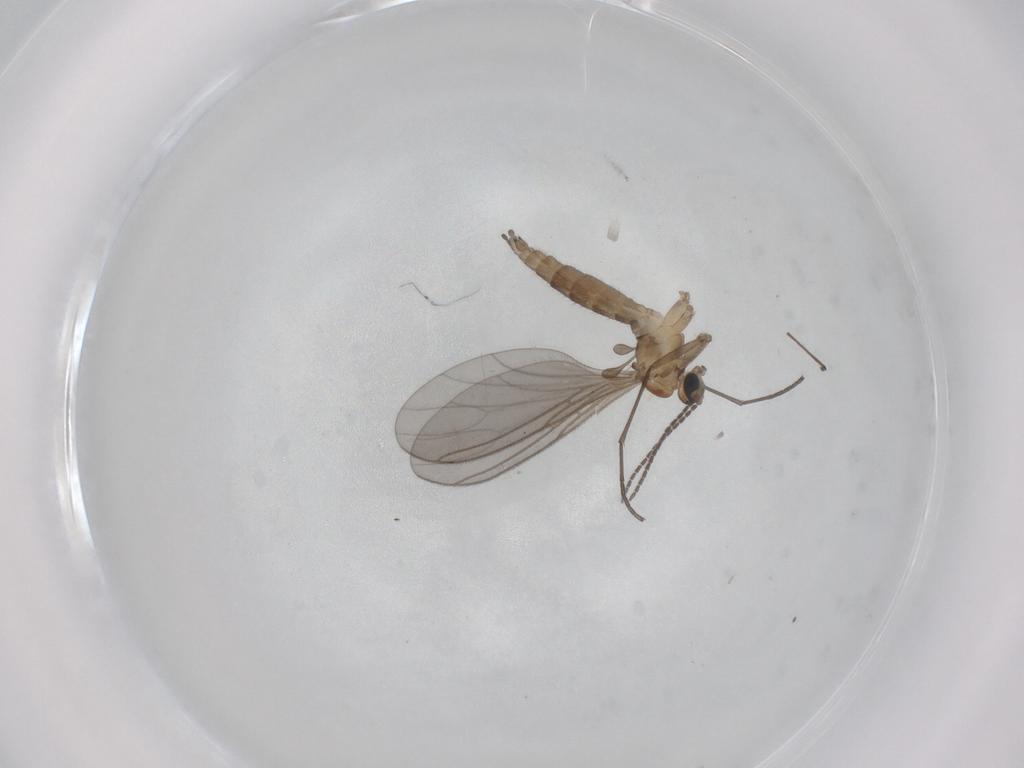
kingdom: Animalia
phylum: Arthropoda
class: Insecta
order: Diptera
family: Sciaridae
